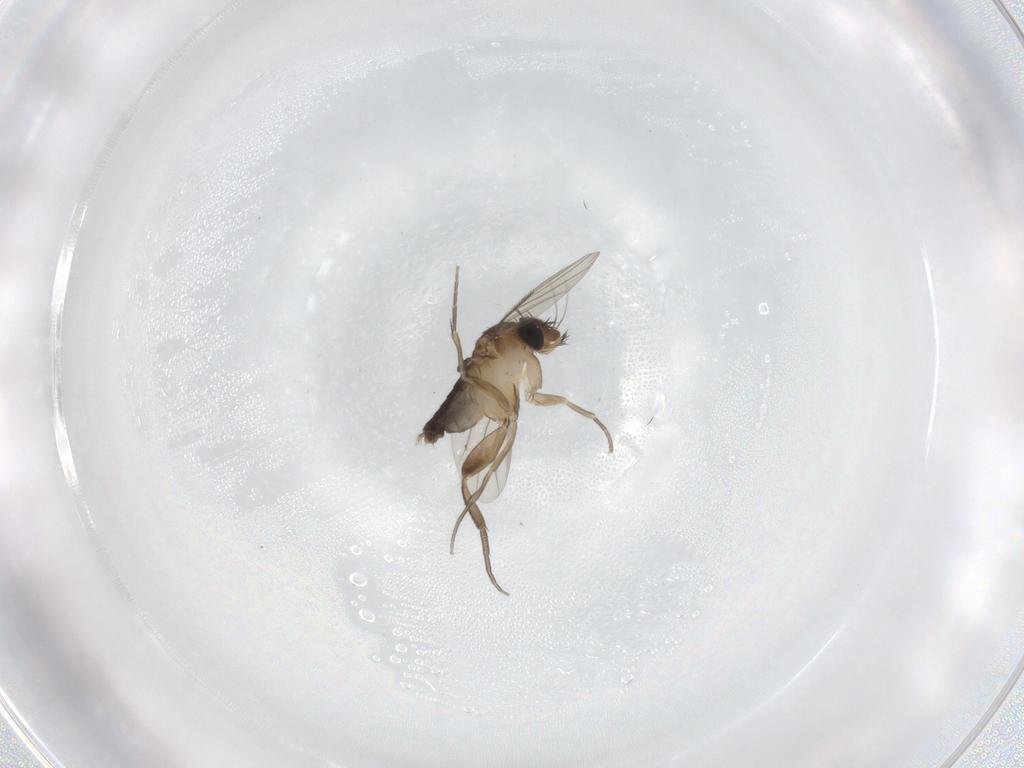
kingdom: Animalia
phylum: Arthropoda
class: Insecta
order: Diptera
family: Phoridae
